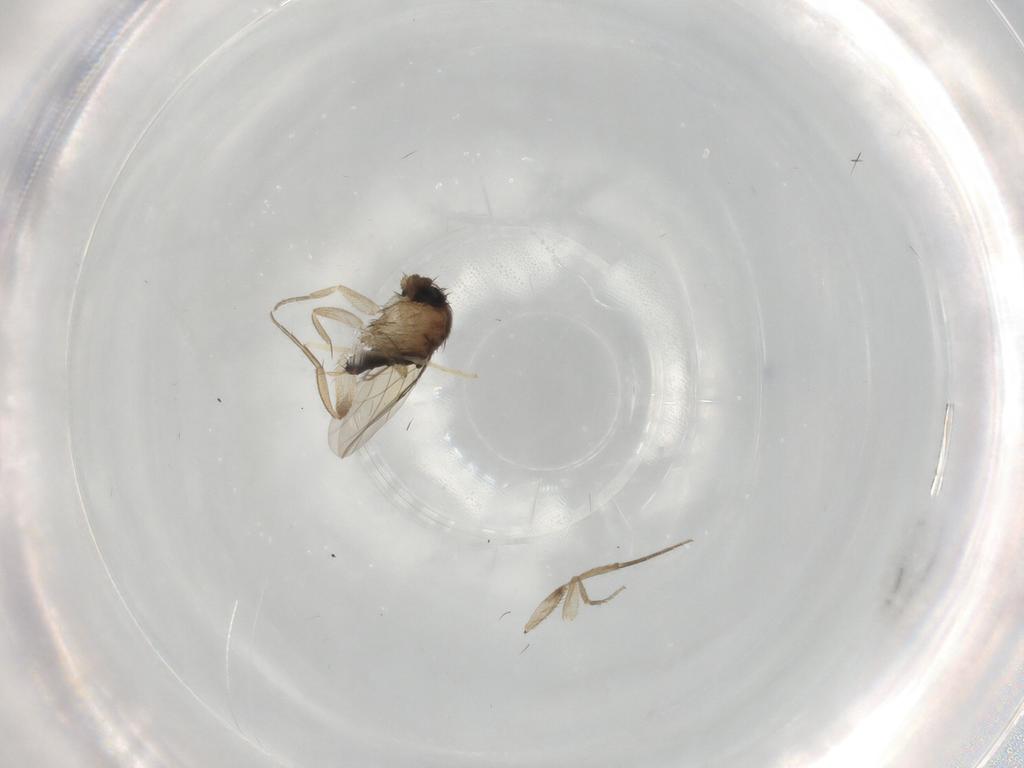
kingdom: Animalia
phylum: Arthropoda
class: Insecta
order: Diptera
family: Phoridae
